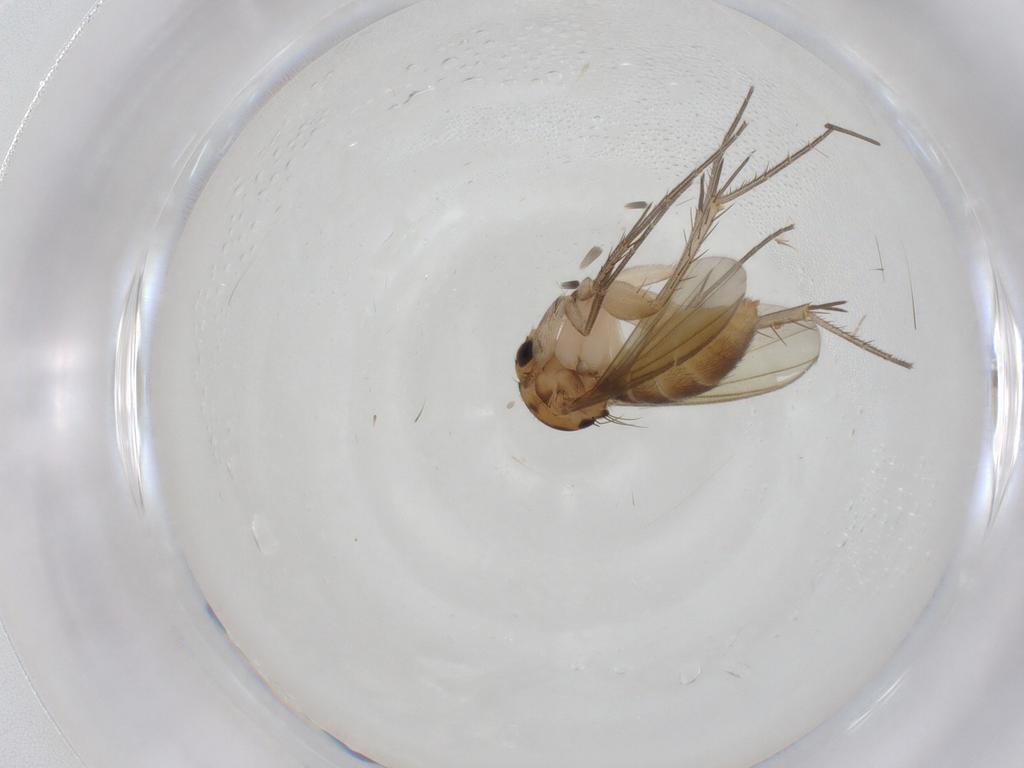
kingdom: Animalia
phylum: Arthropoda
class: Insecta
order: Diptera
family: Mycetophilidae
